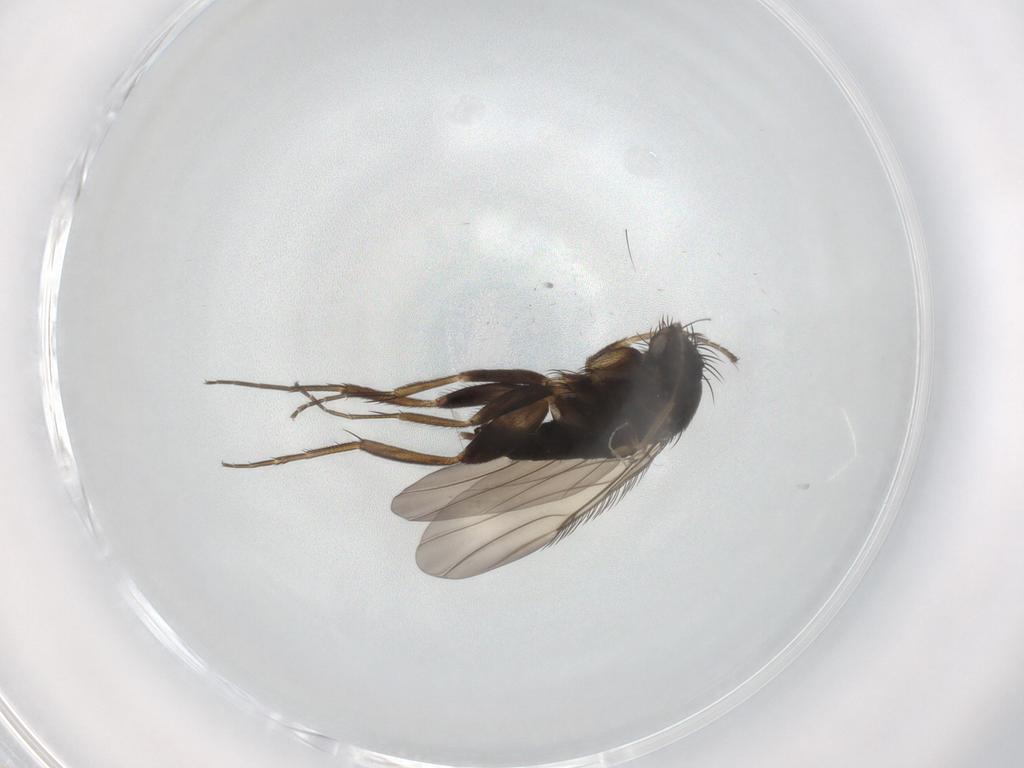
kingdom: Animalia
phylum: Arthropoda
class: Insecta
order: Diptera
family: Phoridae
